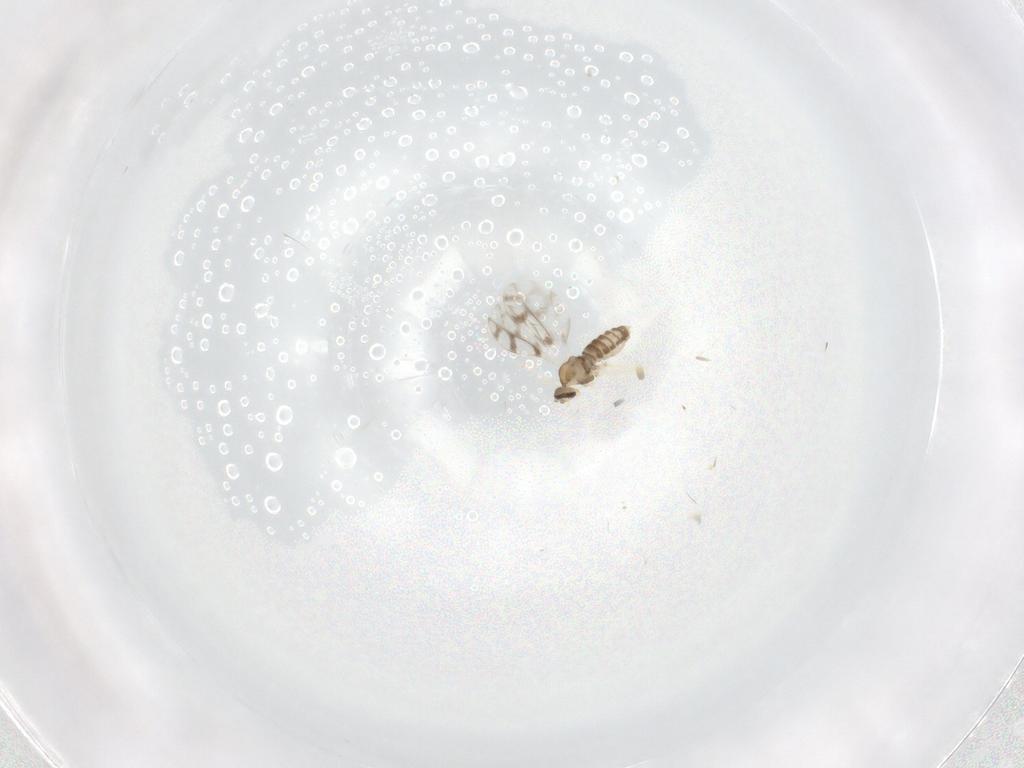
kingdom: Animalia
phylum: Arthropoda
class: Insecta
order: Diptera
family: Cecidomyiidae
